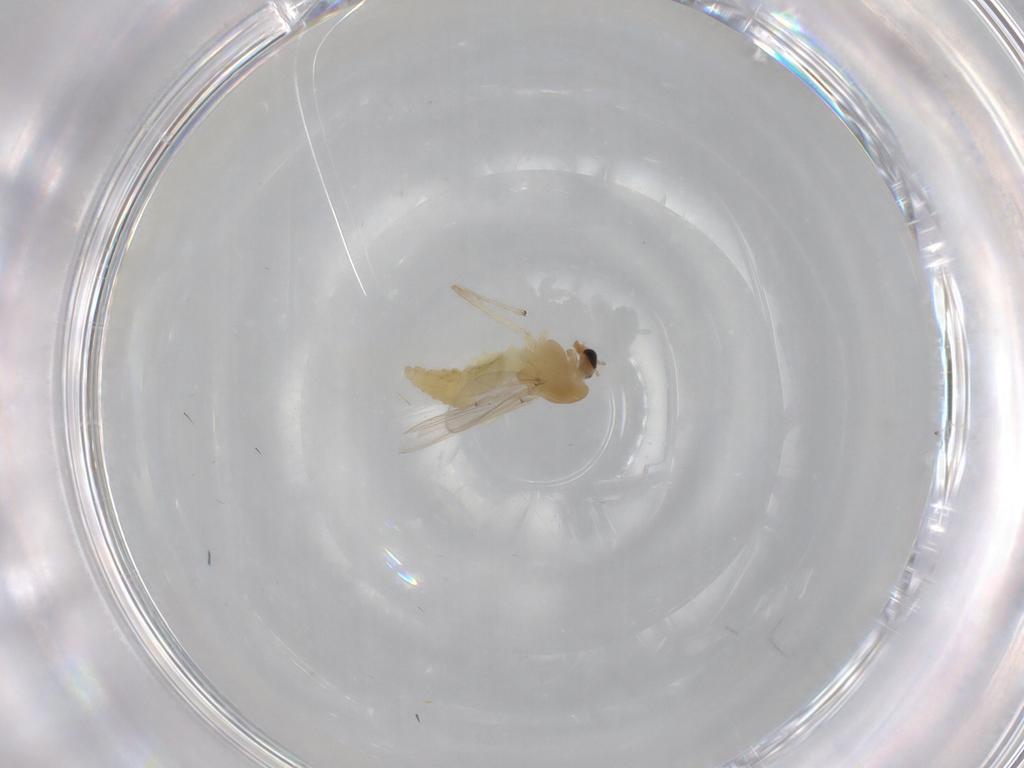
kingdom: Animalia
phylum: Arthropoda
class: Insecta
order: Diptera
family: Chironomidae
